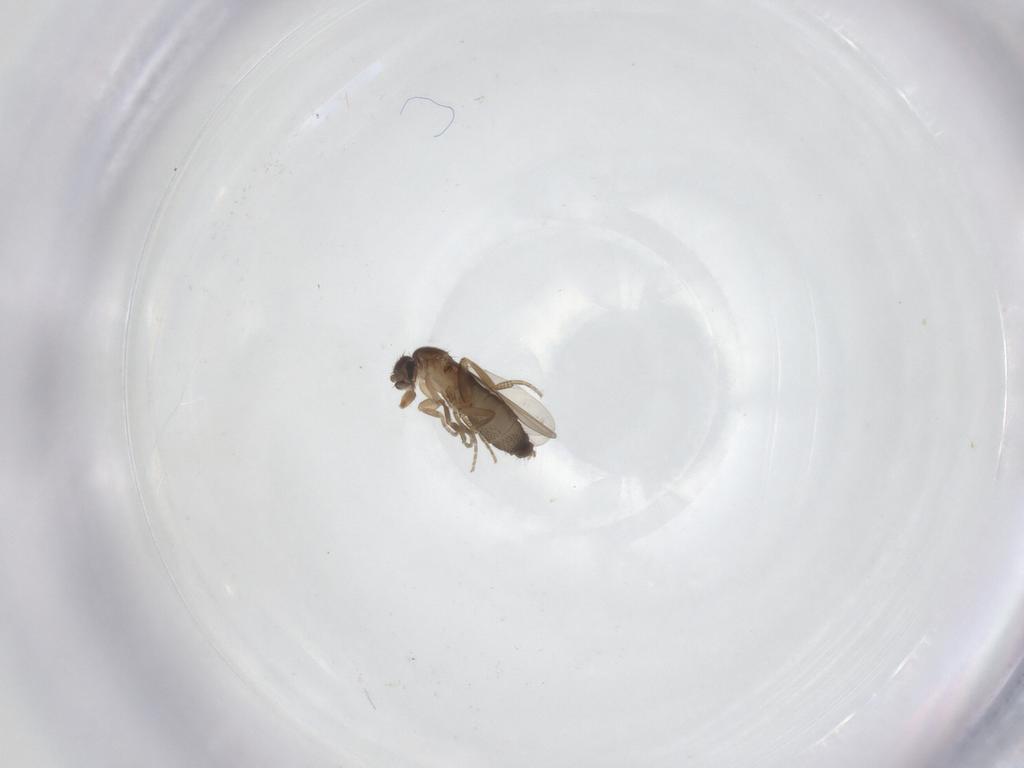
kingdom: Animalia
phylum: Arthropoda
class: Insecta
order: Diptera
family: Phoridae
